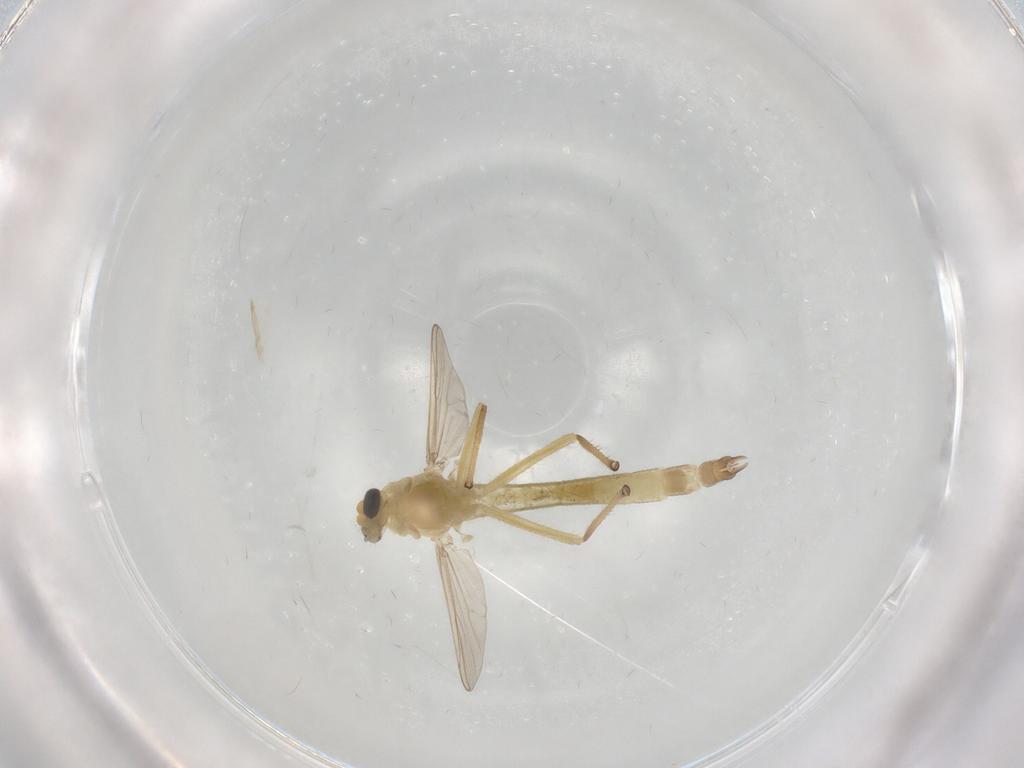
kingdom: Animalia
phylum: Arthropoda
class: Insecta
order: Diptera
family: Chironomidae
